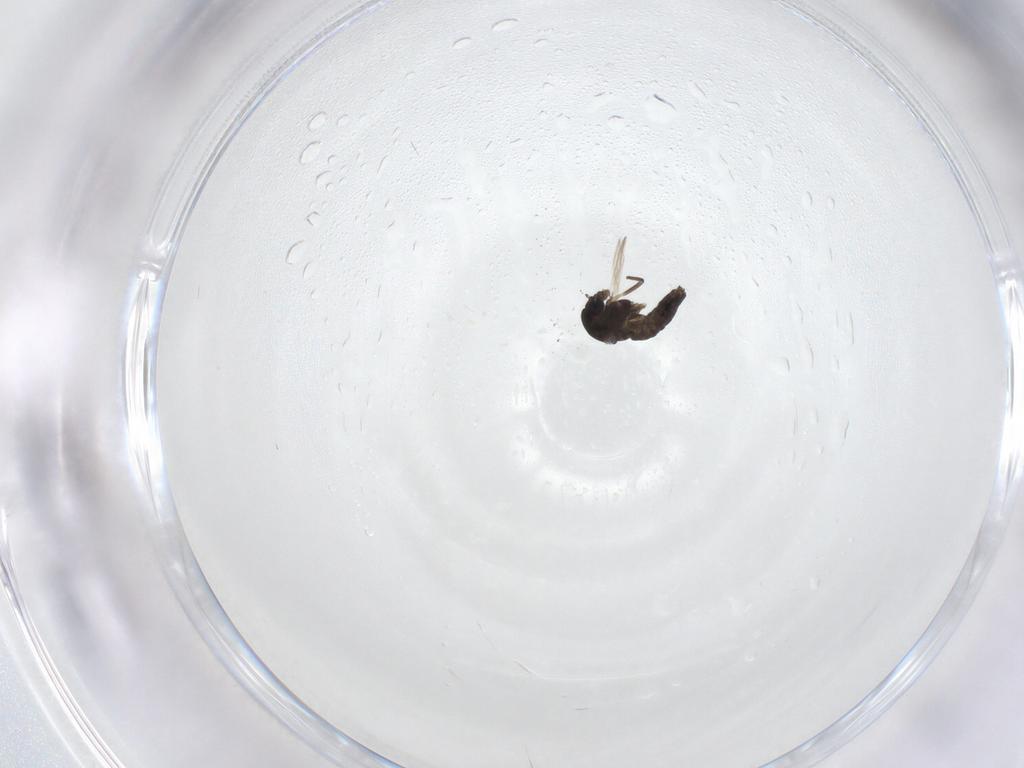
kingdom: Animalia
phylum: Arthropoda
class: Insecta
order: Diptera
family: Chironomidae
